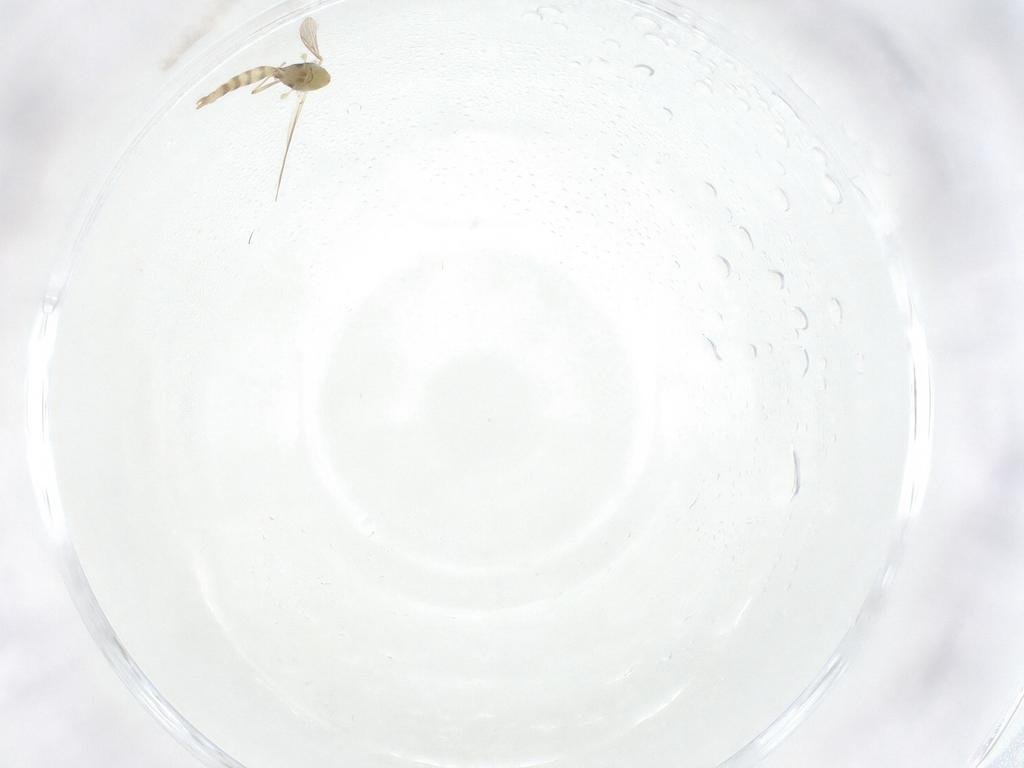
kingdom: Animalia
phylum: Arthropoda
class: Insecta
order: Diptera
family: Chironomidae
